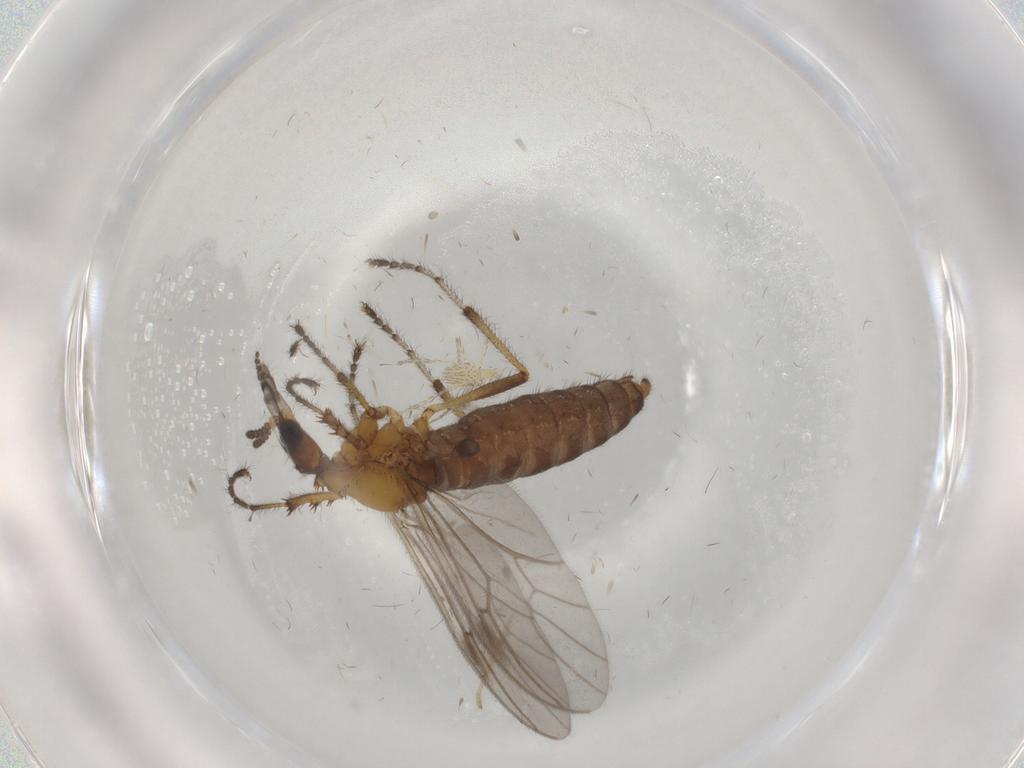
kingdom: Animalia
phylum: Arthropoda
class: Insecta
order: Diptera
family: Bibionidae
